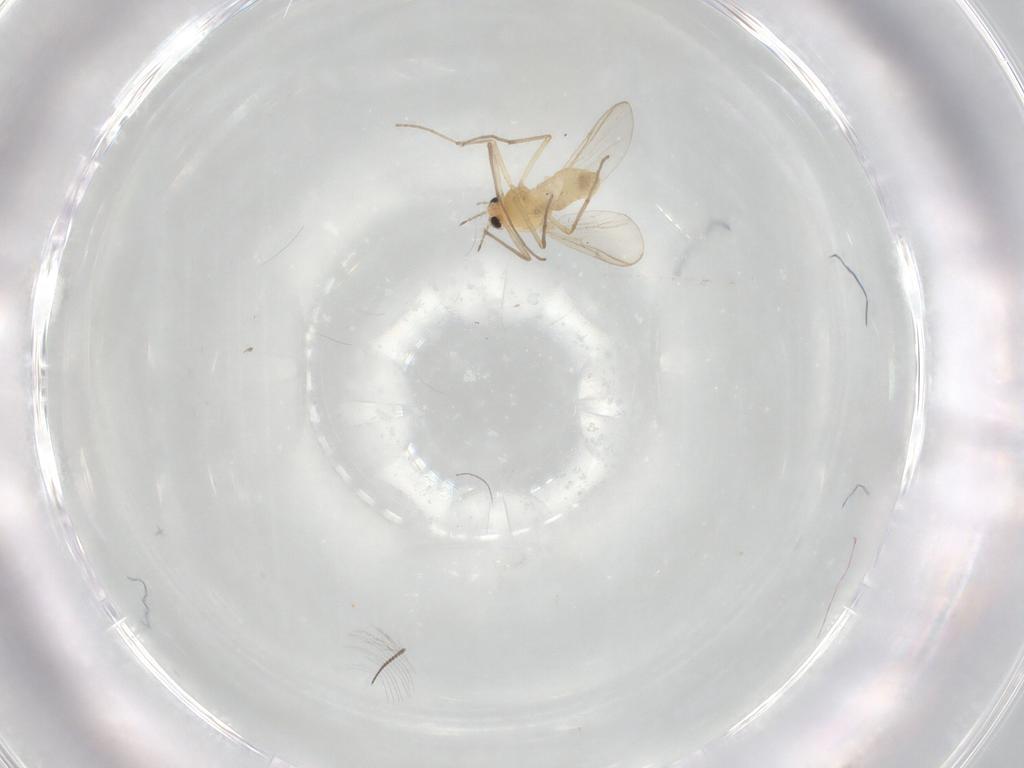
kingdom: Animalia
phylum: Arthropoda
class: Insecta
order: Diptera
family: Chironomidae
